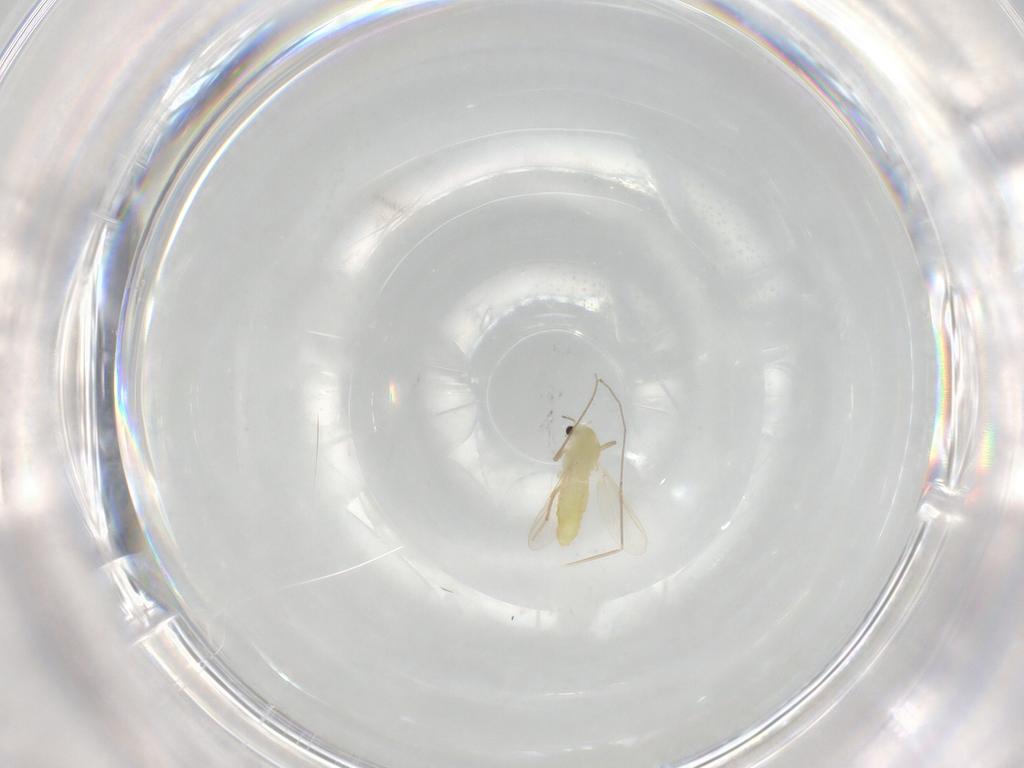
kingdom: Animalia
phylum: Arthropoda
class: Insecta
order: Diptera
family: Chironomidae
